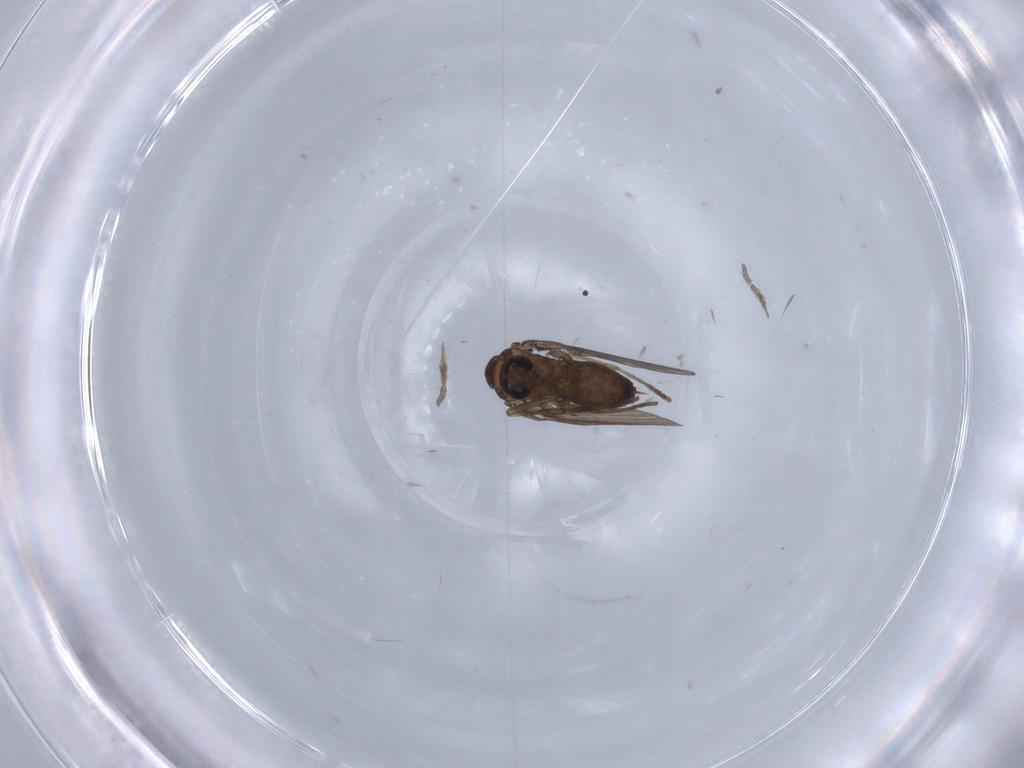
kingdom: Animalia
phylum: Arthropoda
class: Insecta
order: Diptera
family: Psychodidae
